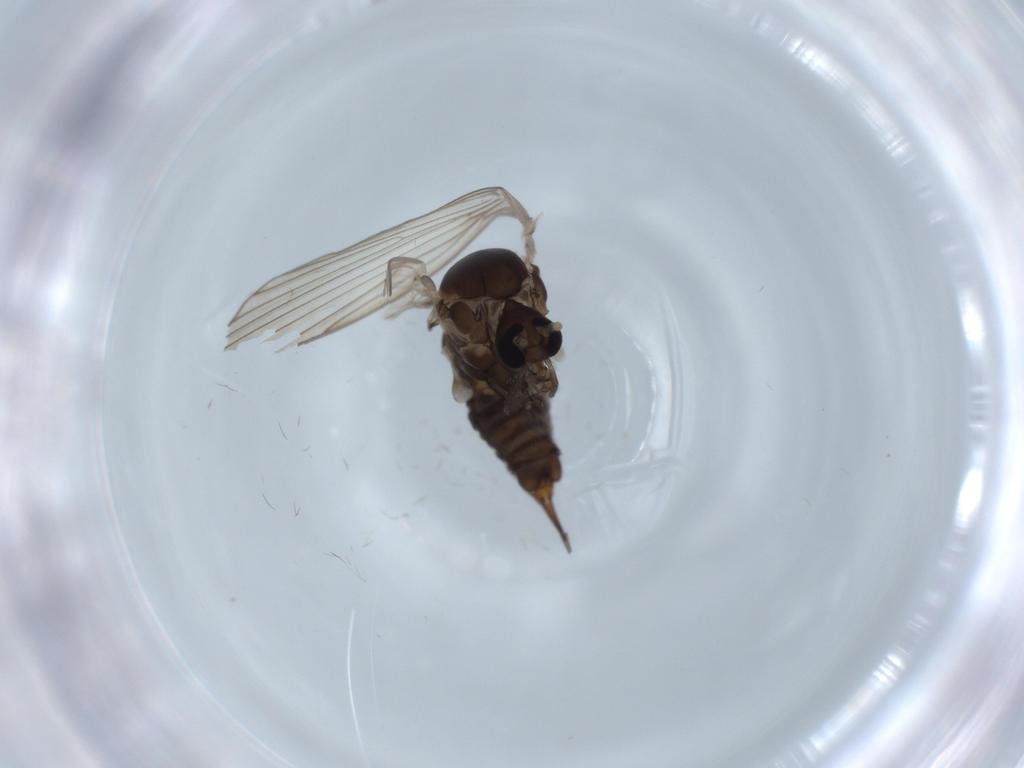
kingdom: Animalia
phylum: Arthropoda
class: Insecta
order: Diptera
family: Psychodidae
